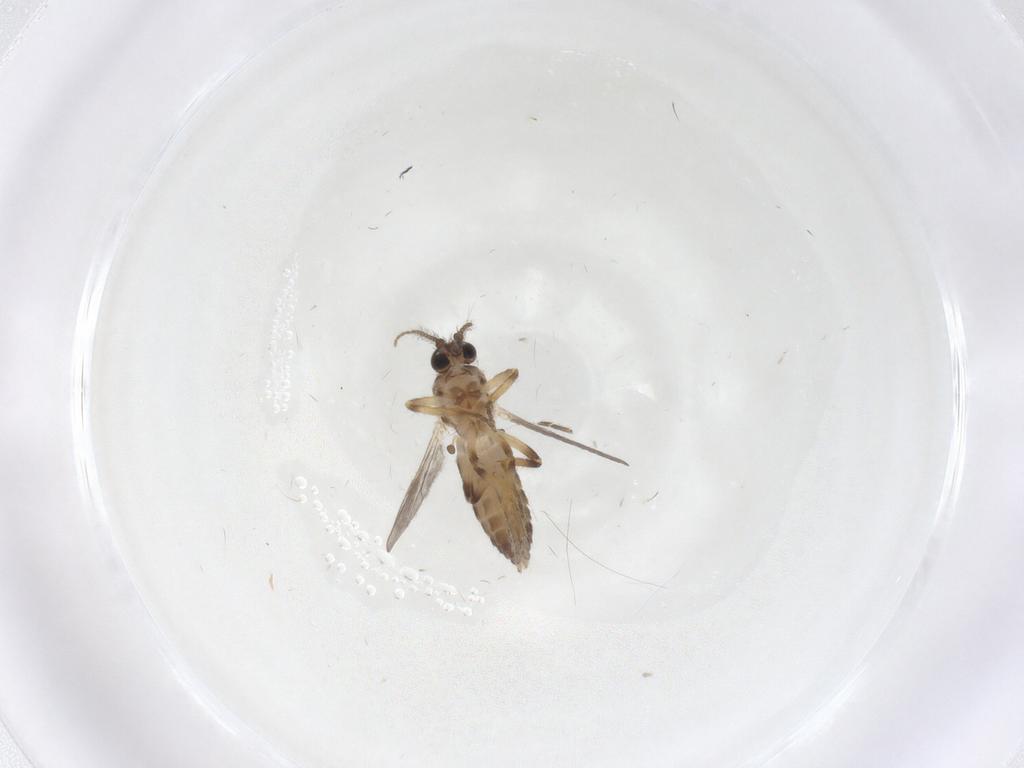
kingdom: Animalia
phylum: Arthropoda
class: Insecta
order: Diptera
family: Ceratopogonidae
